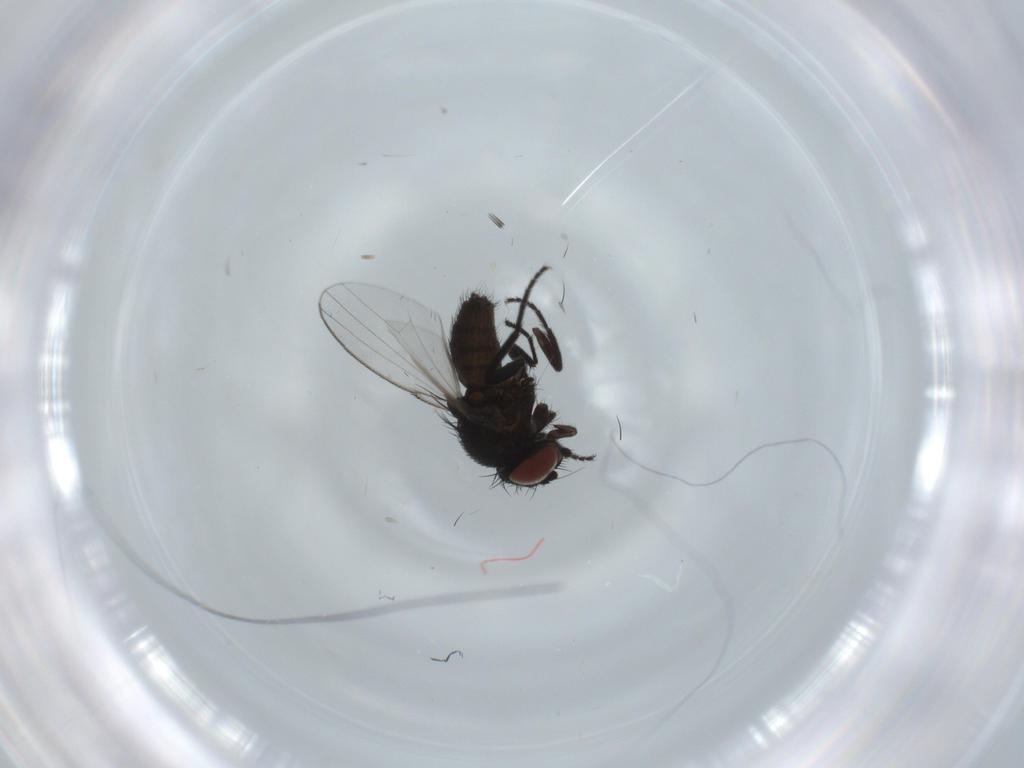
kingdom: Animalia
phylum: Arthropoda
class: Insecta
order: Diptera
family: Milichiidae
